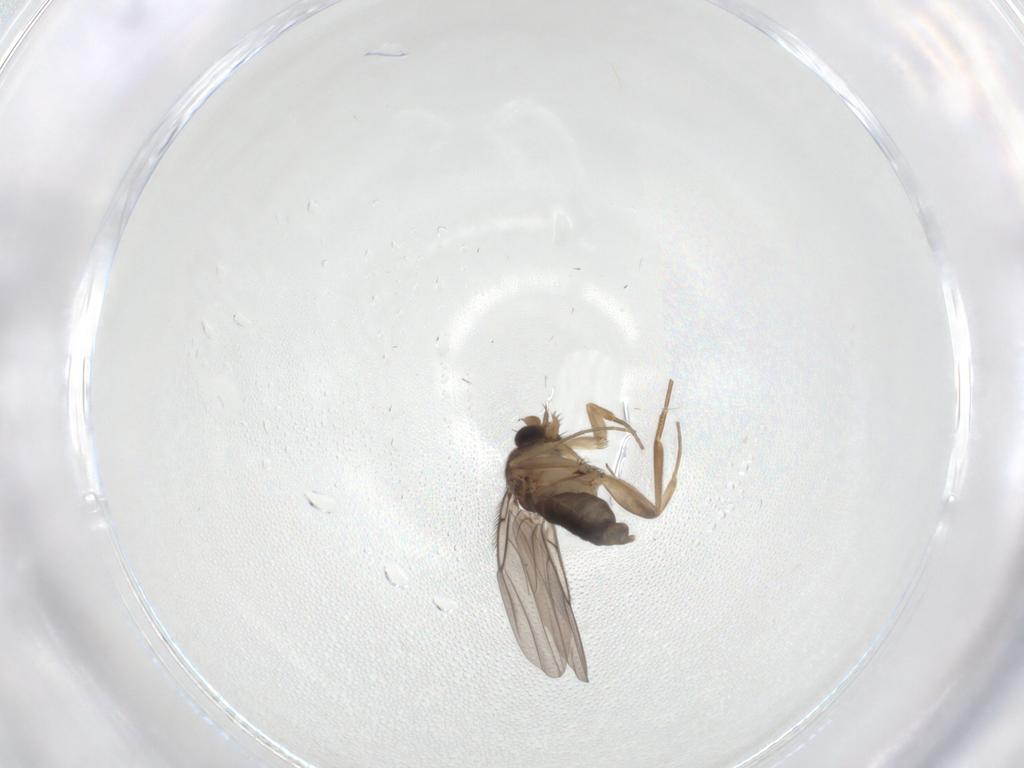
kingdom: Animalia
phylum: Arthropoda
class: Insecta
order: Diptera
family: Phoridae
